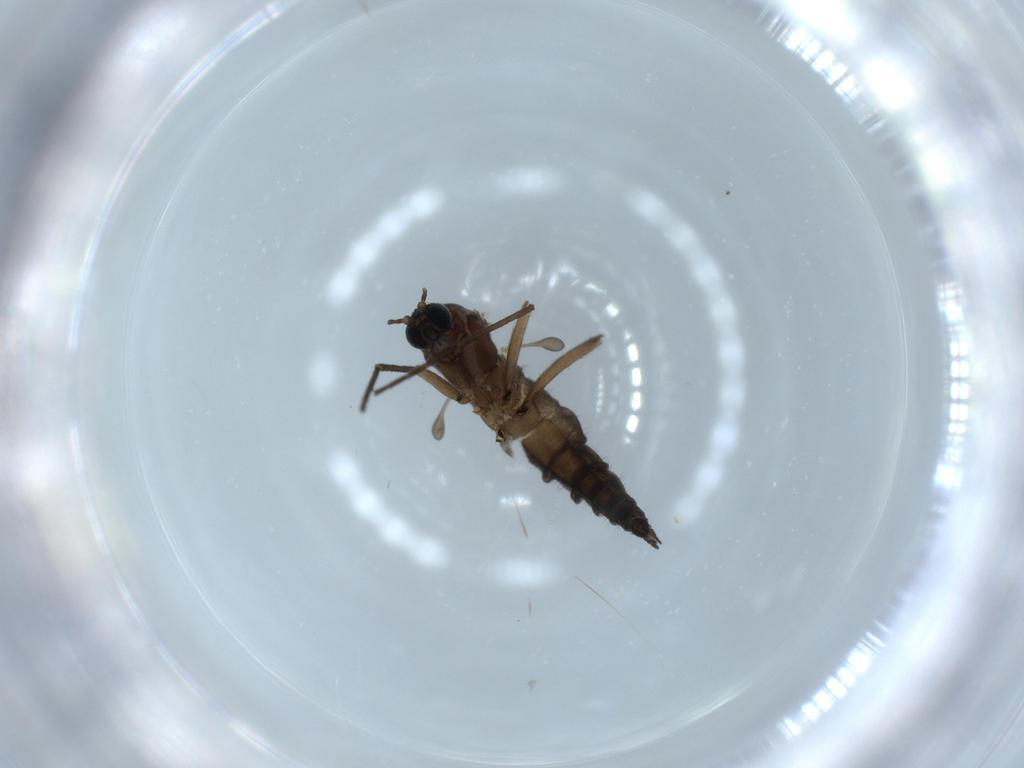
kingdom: Animalia
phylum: Arthropoda
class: Insecta
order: Diptera
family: Sciaridae
